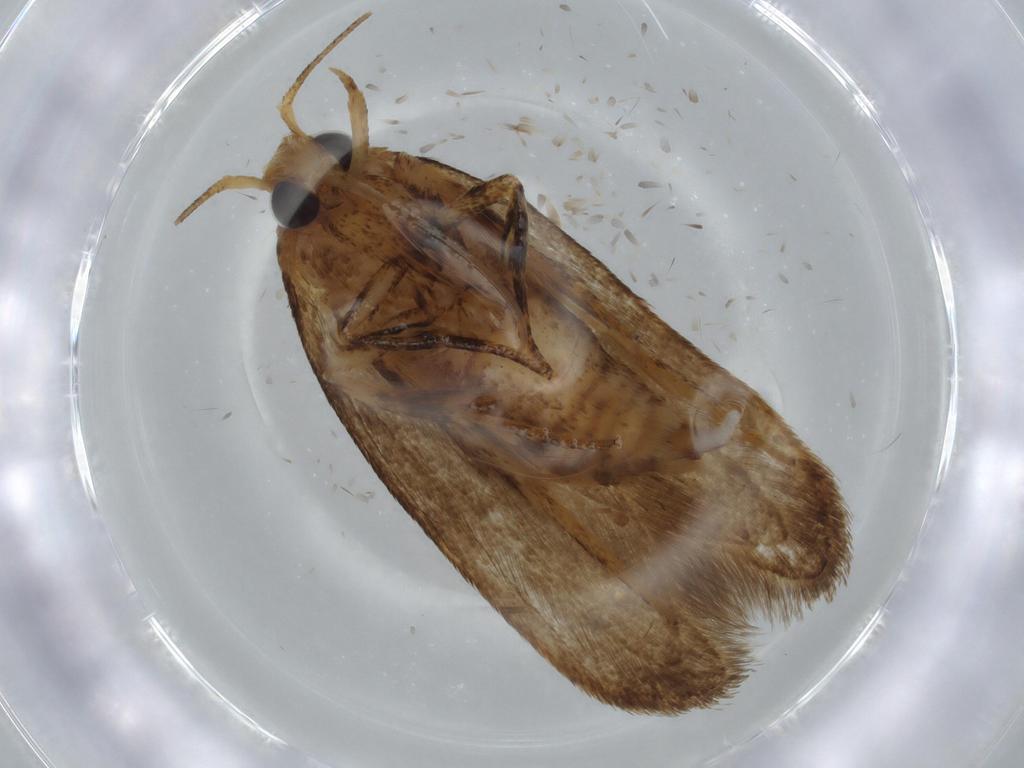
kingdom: Animalia
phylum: Arthropoda
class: Insecta
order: Lepidoptera
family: Gracillariidae
